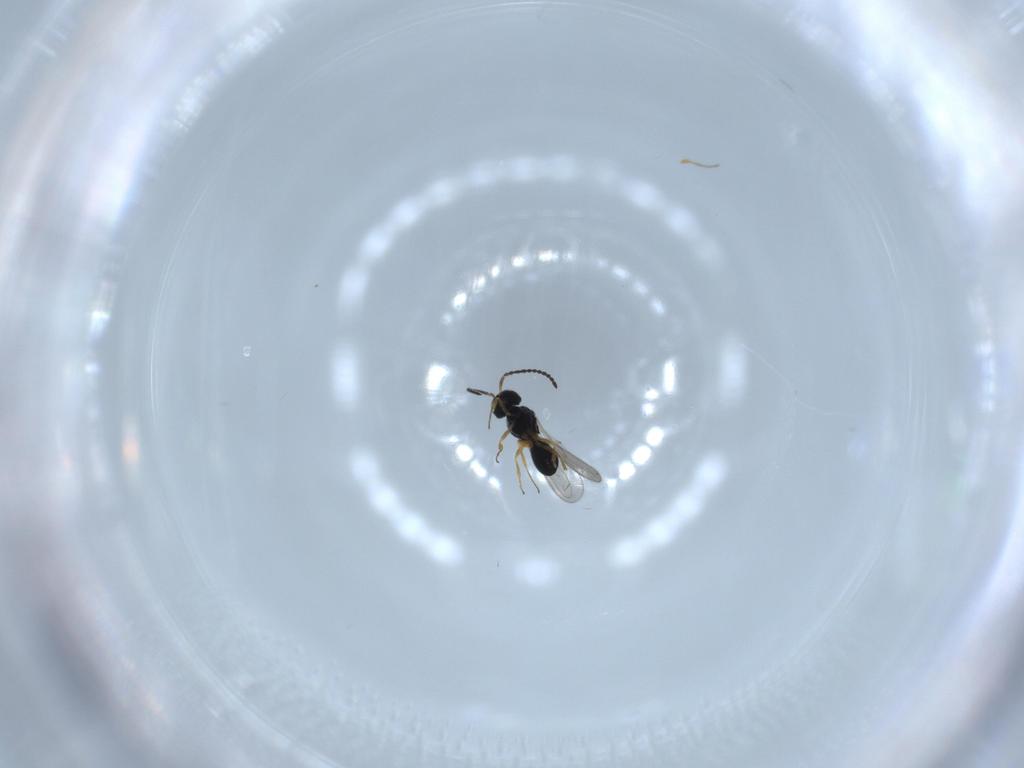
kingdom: Animalia
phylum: Arthropoda
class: Insecta
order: Hymenoptera
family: Scelionidae
